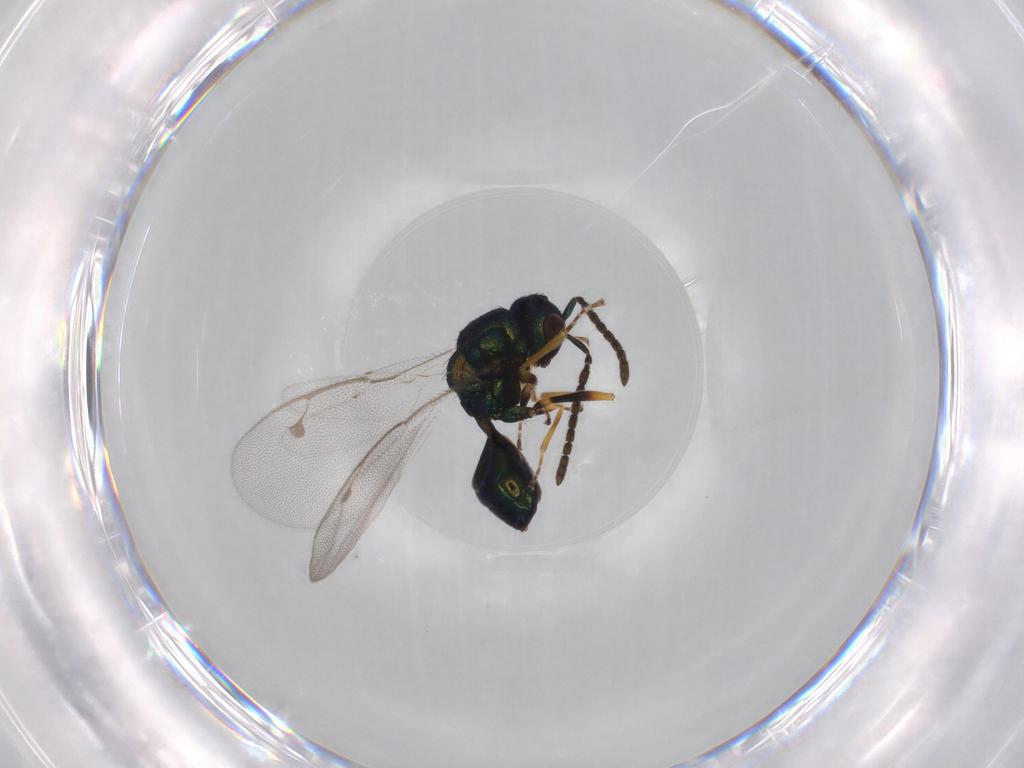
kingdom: Animalia
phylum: Arthropoda
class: Insecta
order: Hymenoptera
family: Pteromalidae
